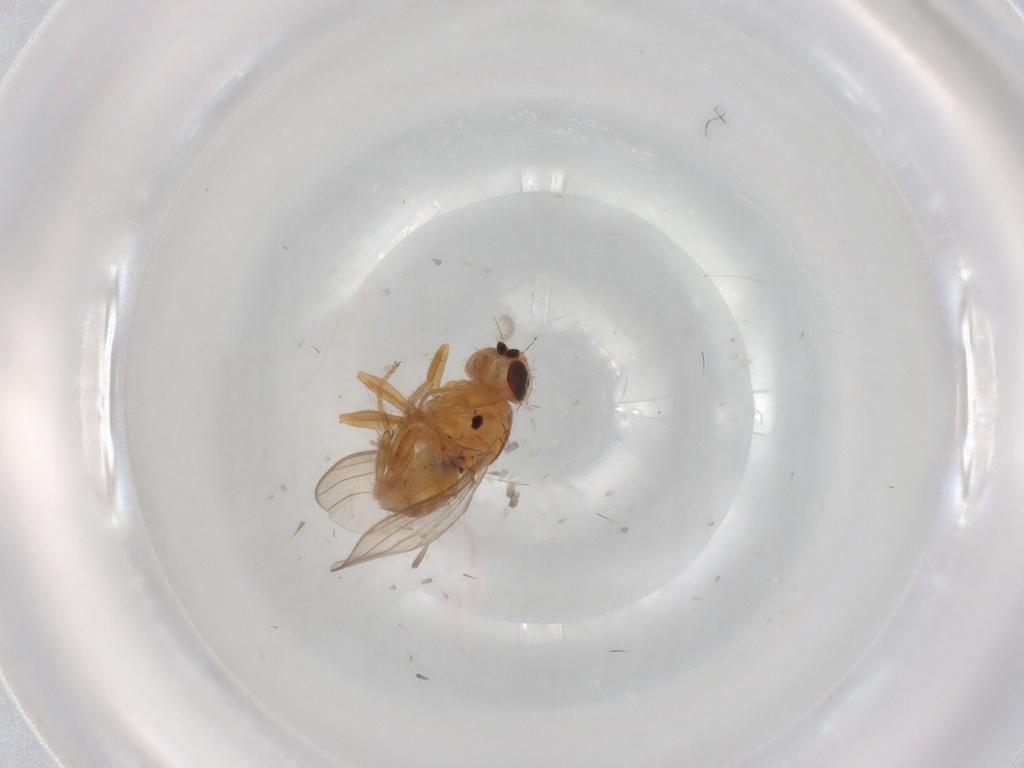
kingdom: Animalia
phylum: Arthropoda
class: Insecta
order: Diptera
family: Chloropidae
